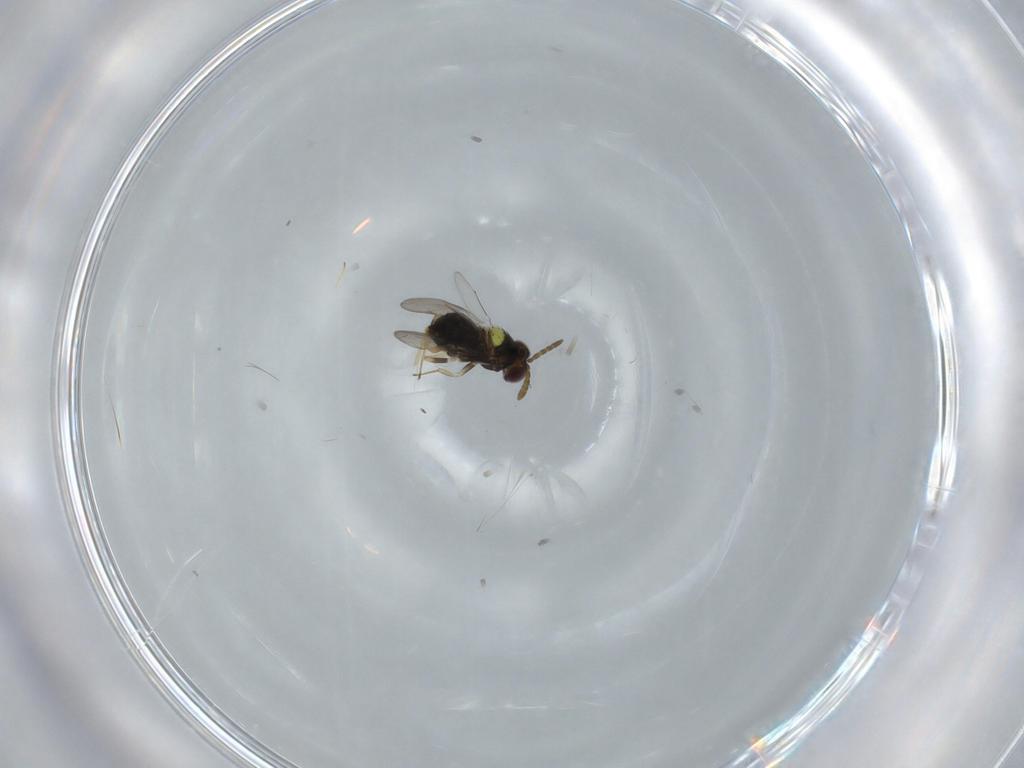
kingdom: Animalia
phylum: Arthropoda
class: Insecta
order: Hymenoptera
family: Aphelinidae
